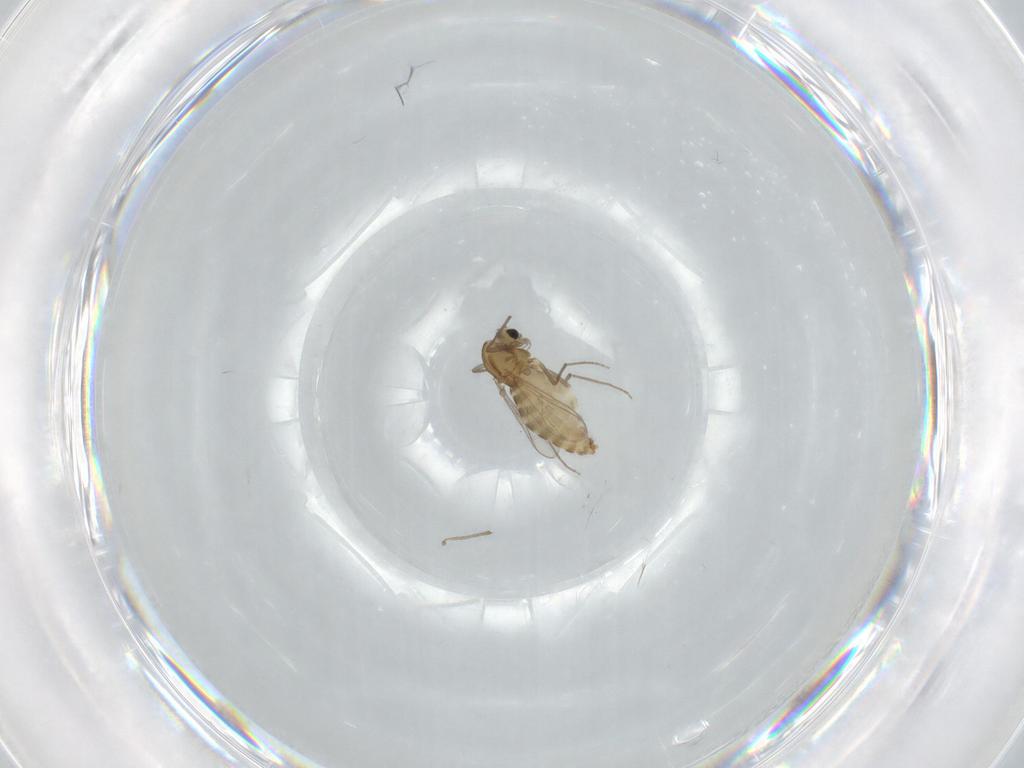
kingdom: Animalia
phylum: Arthropoda
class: Insecta
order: Diptera
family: Chironomidae
